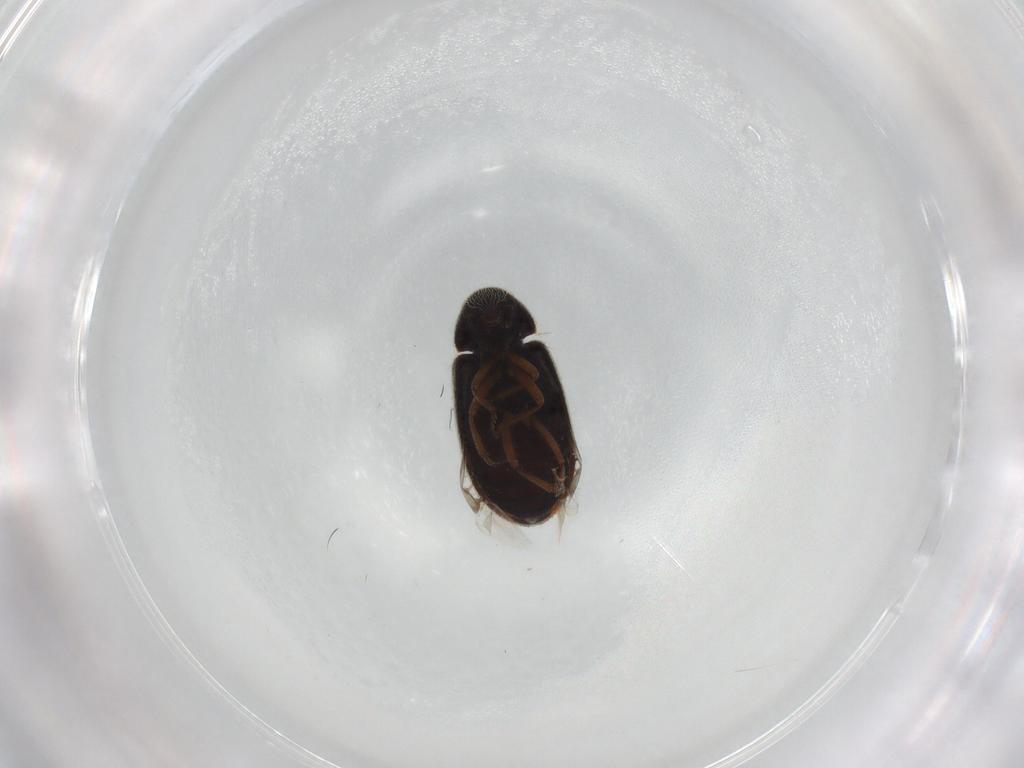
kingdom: Animalia
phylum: Arthropoda
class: Insecta
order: Coleoptera
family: Rhadalidae
